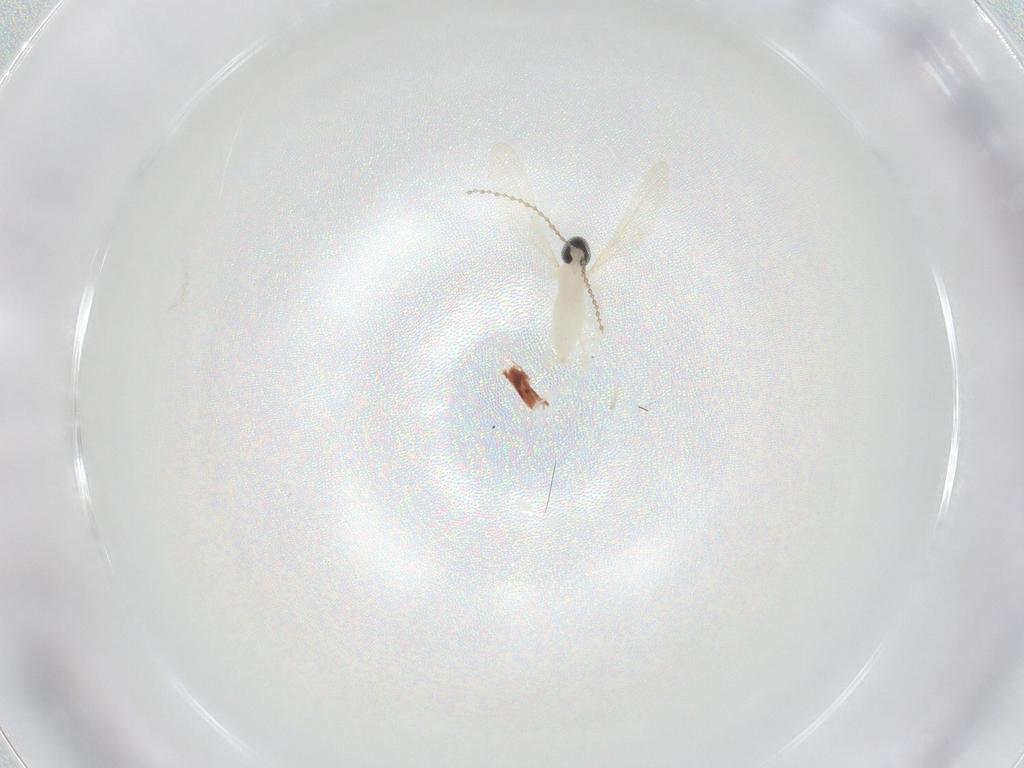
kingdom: Animalia
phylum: Arthropoda
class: Insecta
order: Diptera
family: Cecidomyiidae
